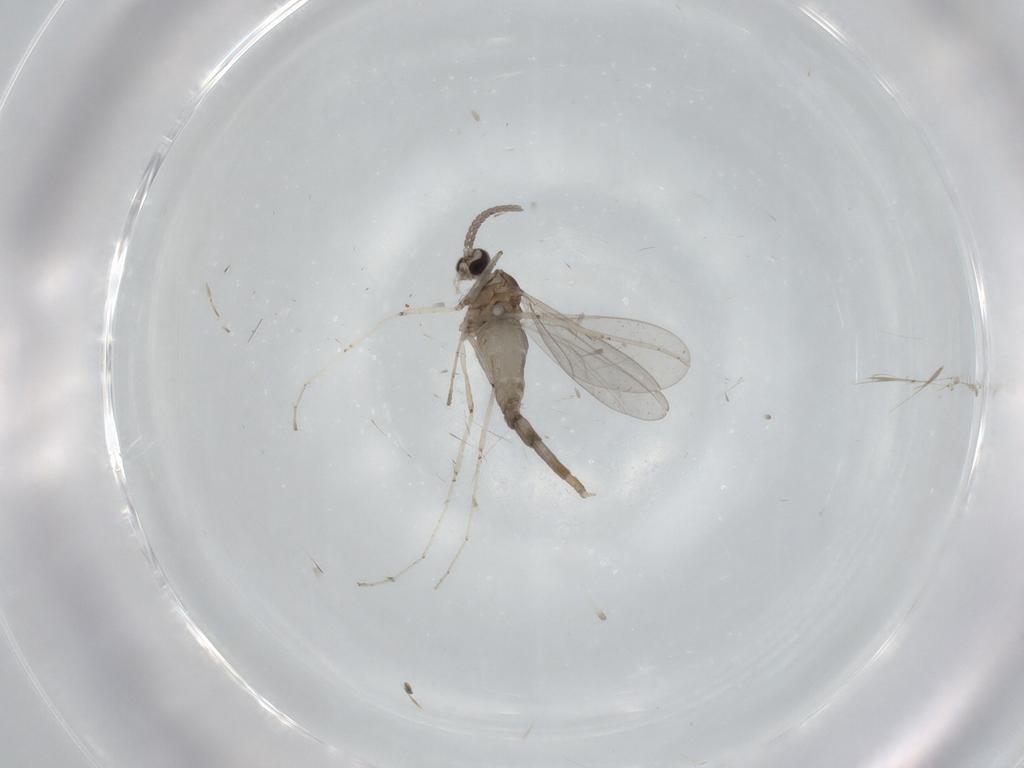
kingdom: Animalia
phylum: Arthropoda
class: Insecta
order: Diptera
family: Cecidomyiidae
